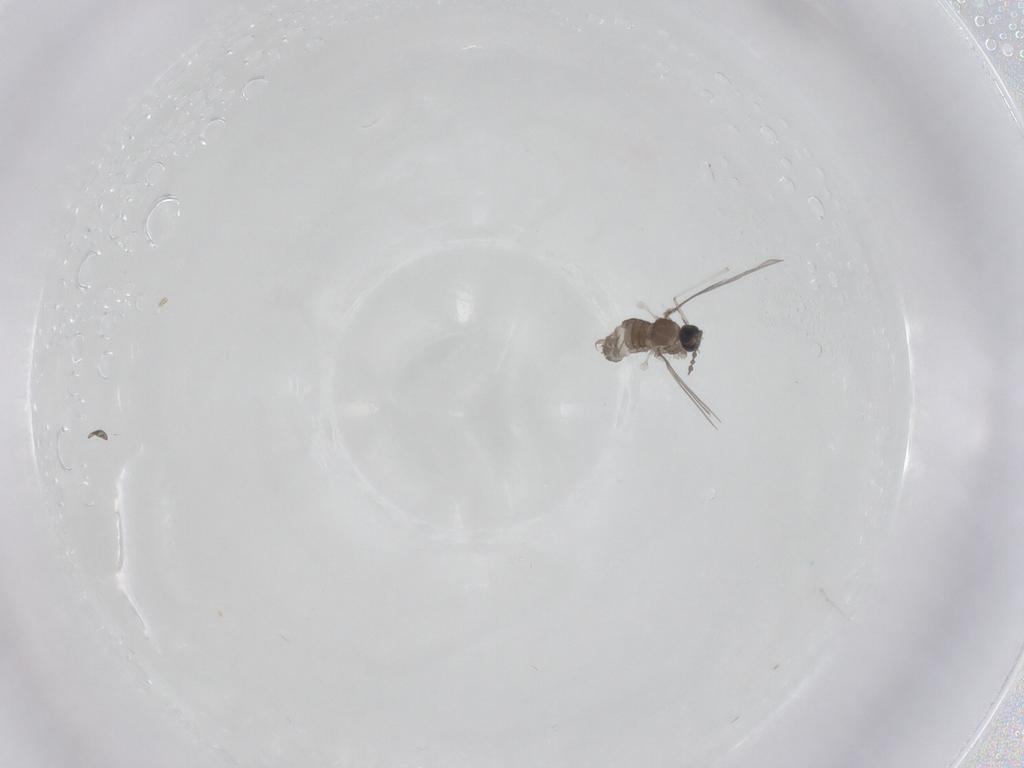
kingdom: Animalia
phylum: Arthropoda
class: Insecta
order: Diptera
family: Cecidomyiidae
